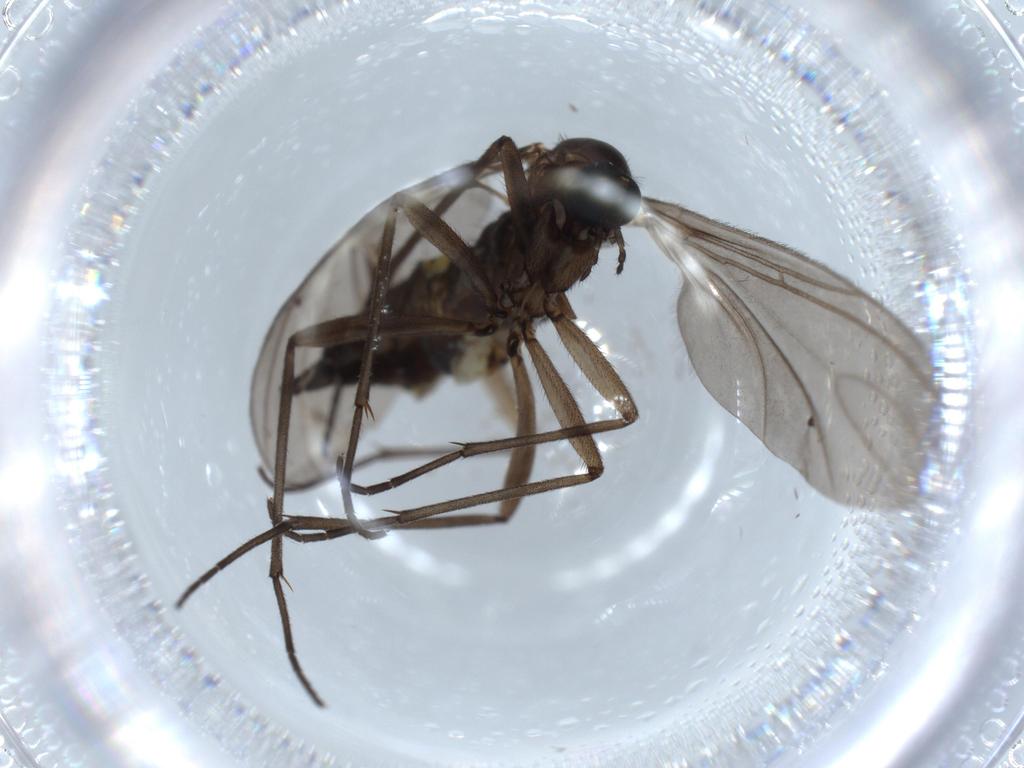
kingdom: Animalia
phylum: Arthropoda
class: Insecta
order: Diptera
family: Sciaridae
